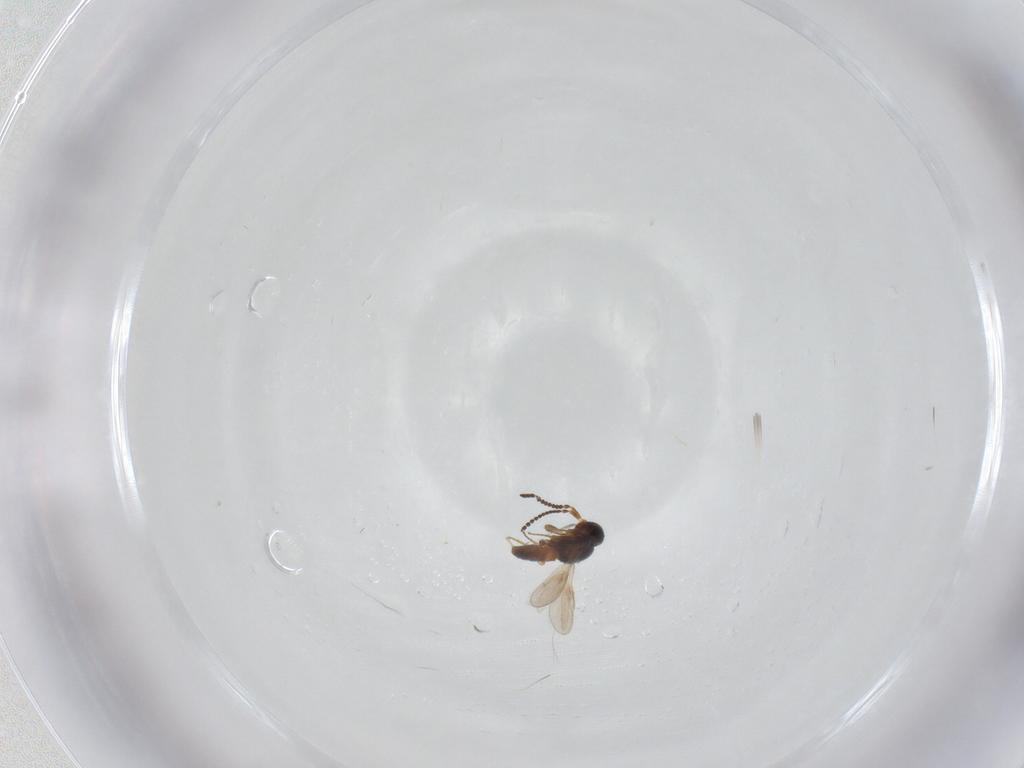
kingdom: Animalia
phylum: Arthropoda
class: Insecta
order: Hymenoptera
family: Scelionidae
